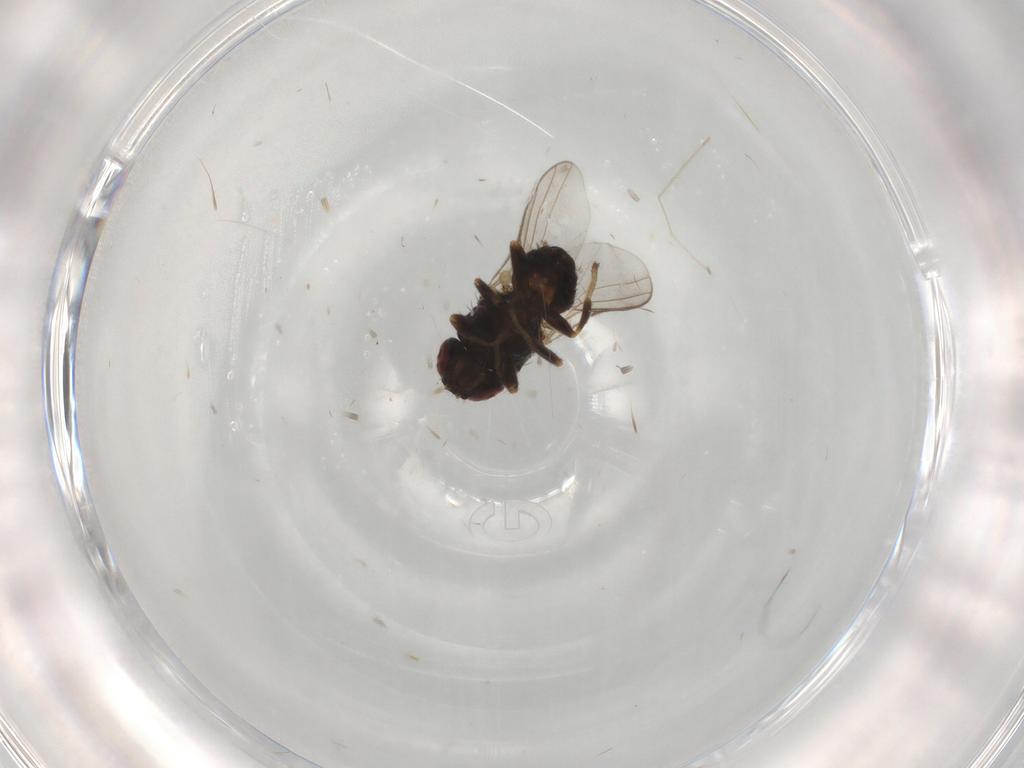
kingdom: Animalia
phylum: Arthropoda
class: Insecta
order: Diptera
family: Chloropidae
